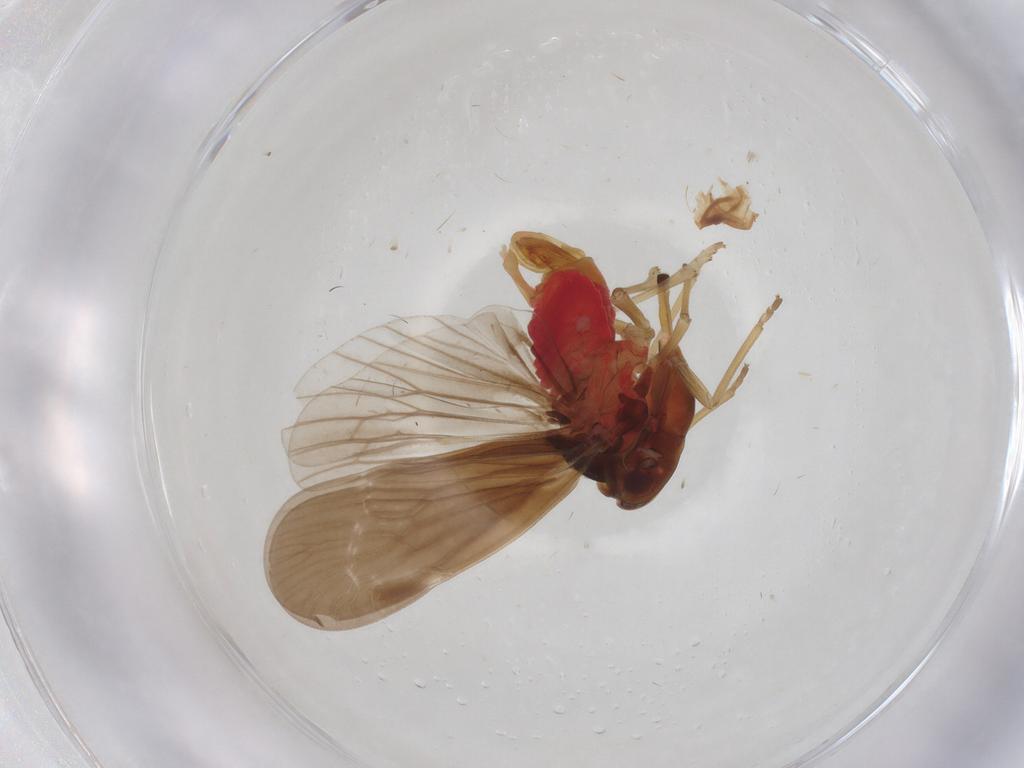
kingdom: Animalia
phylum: Arthropoda
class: Insecta
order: Hemiptera
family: Derbidae
